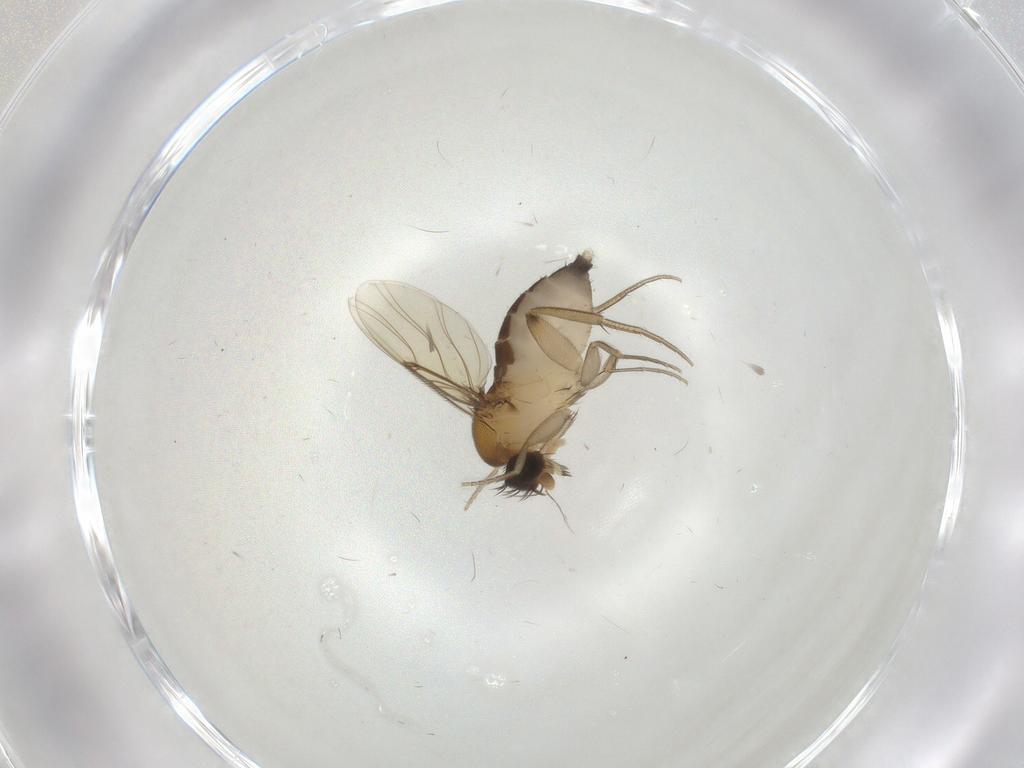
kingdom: Animalia
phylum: Arthropoda
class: Insecta
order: Diptera
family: Phoridae
